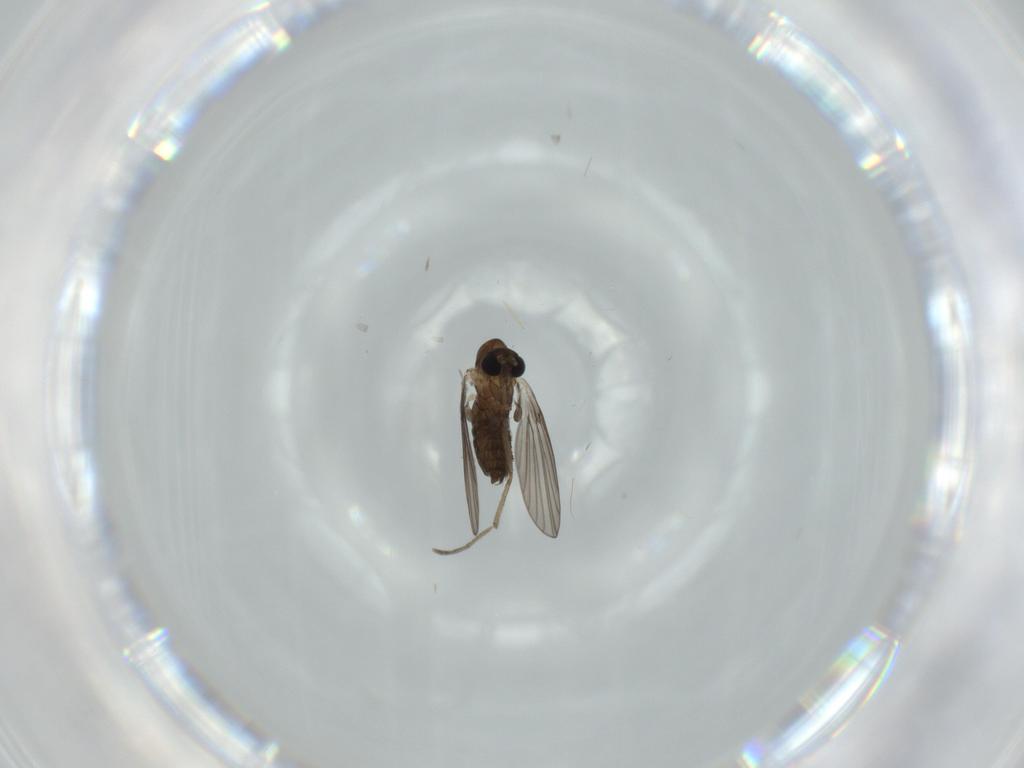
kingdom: Animalia
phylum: Arthropoda
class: Insecta
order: Diptera
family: Psychodidae
